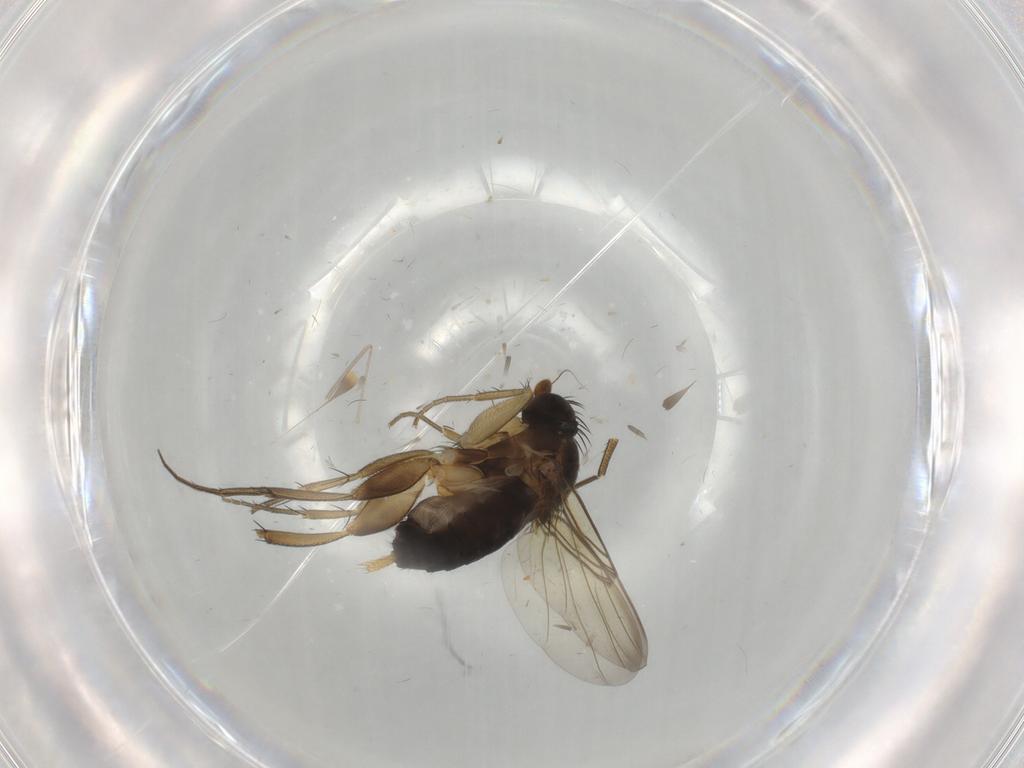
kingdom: Animalia
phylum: Arthropoda
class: Insecta
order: Diptera
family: Phoridae
